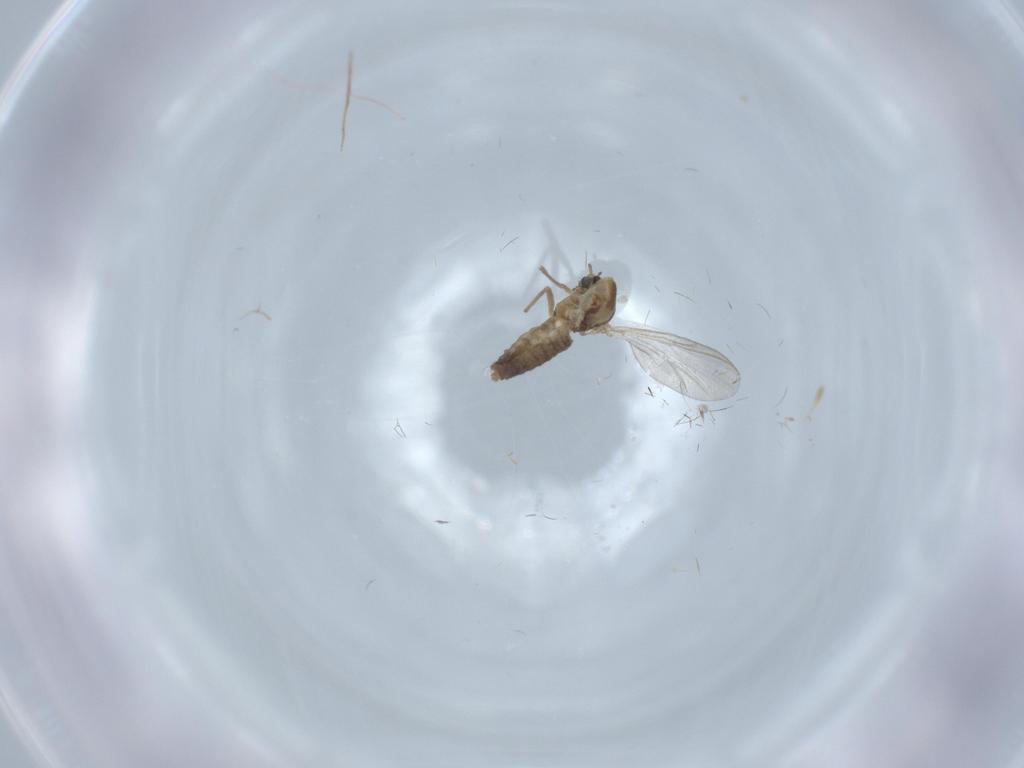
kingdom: Animalia
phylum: Arthropoda
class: Insecta
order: Diptera
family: Chironomidae
